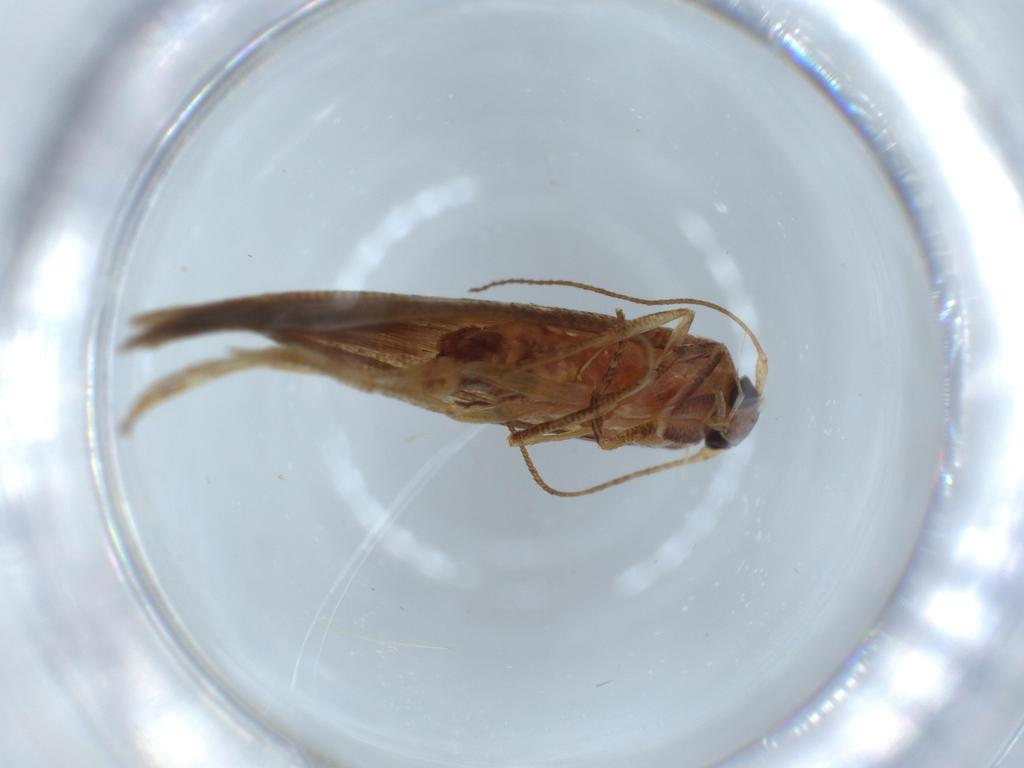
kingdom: Animalia
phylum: Arthropoda
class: Insecta
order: Lepidoptera
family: Stathmopodidae
